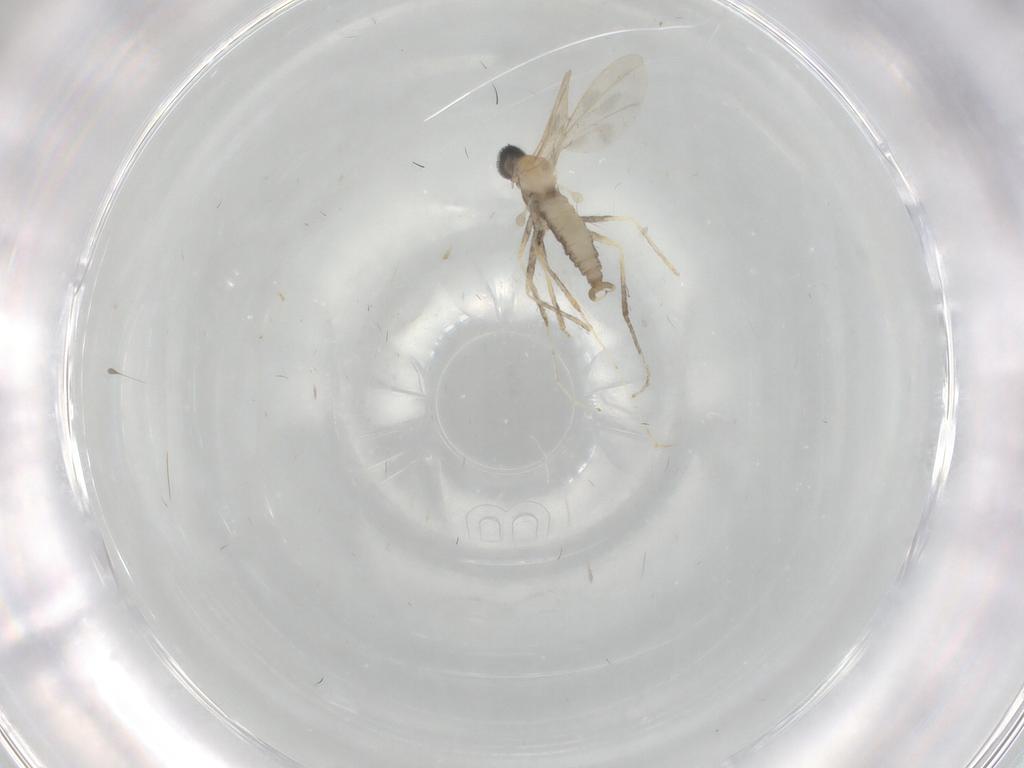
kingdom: Animalia
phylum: Arthropoda
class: Insecta
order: Diptera
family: Cecidomyiidae
